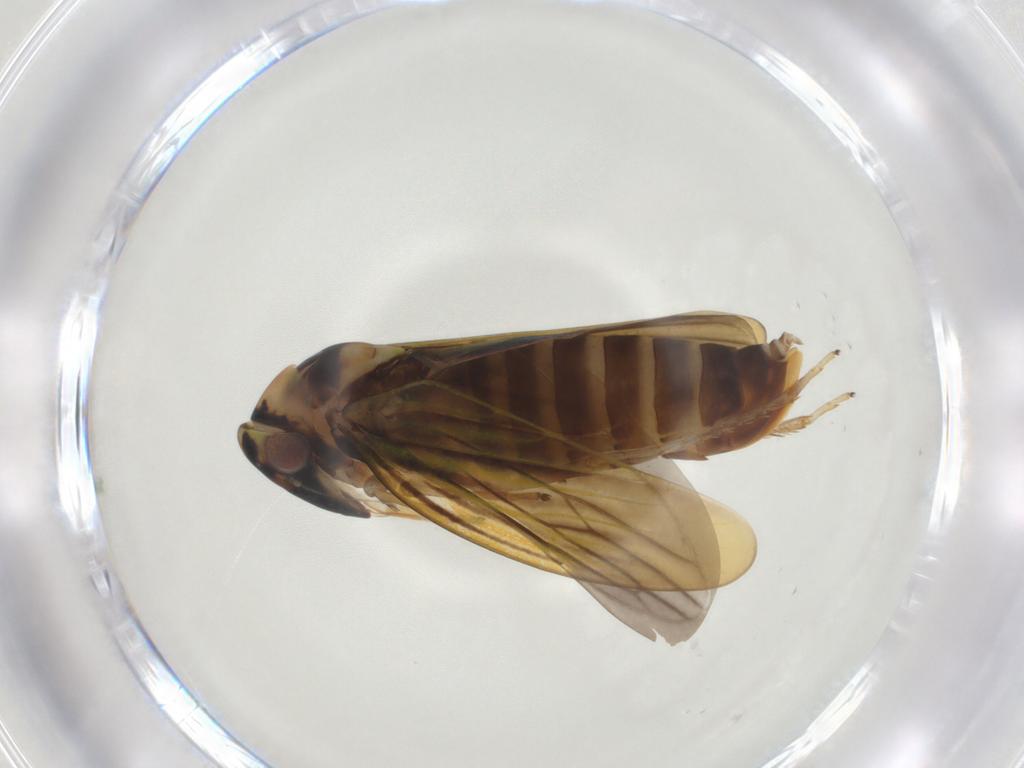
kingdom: Animalia
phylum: Arthropoda
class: Insecta
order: Hemiptera
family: Cicadellidae
